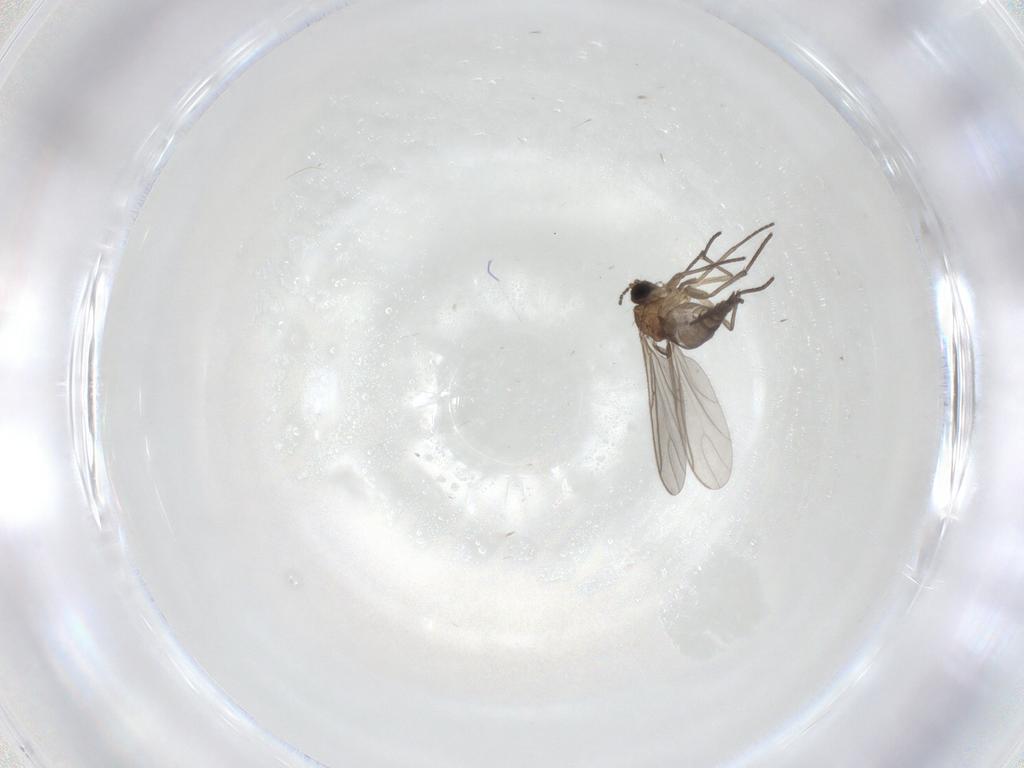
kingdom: Animalia
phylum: Arthropoda
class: Insecta
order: Diptera
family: Sciaridae
